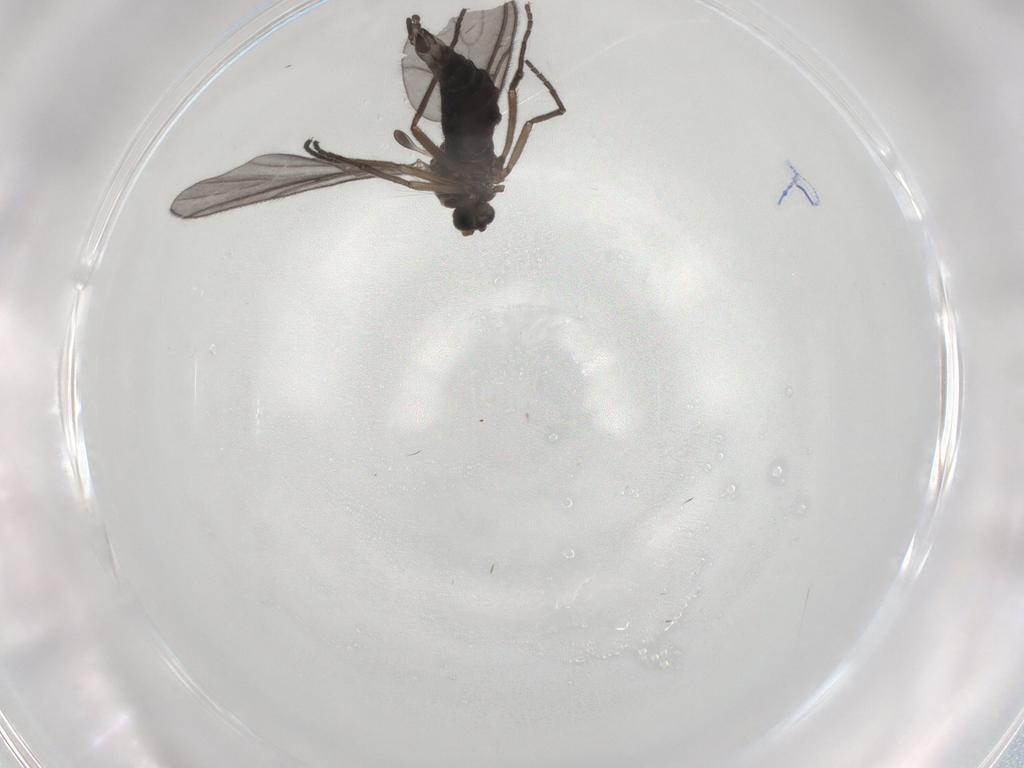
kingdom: Animalia
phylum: Arthropoda
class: Insecta
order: Diptera
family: Sciaridae
